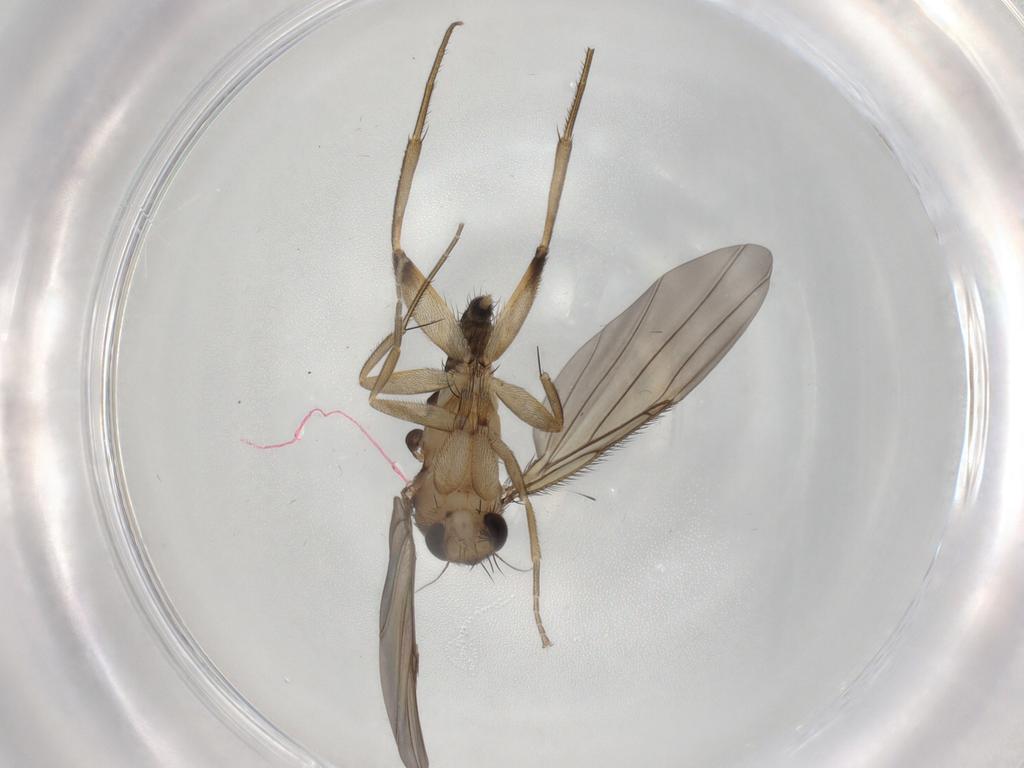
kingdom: Animalia
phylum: Arthropoda
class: Insecta
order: Diptera
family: Phoridae
